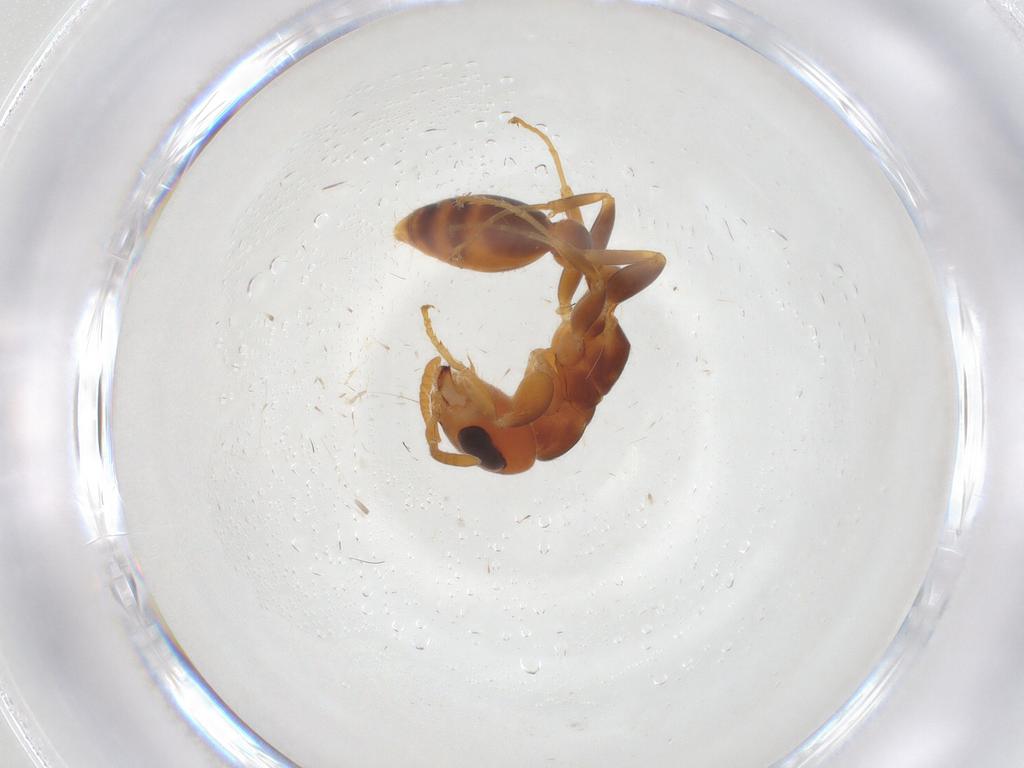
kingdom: Animalia
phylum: Arthropoda
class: Insecta
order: Hymenoptera
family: Formicidae
